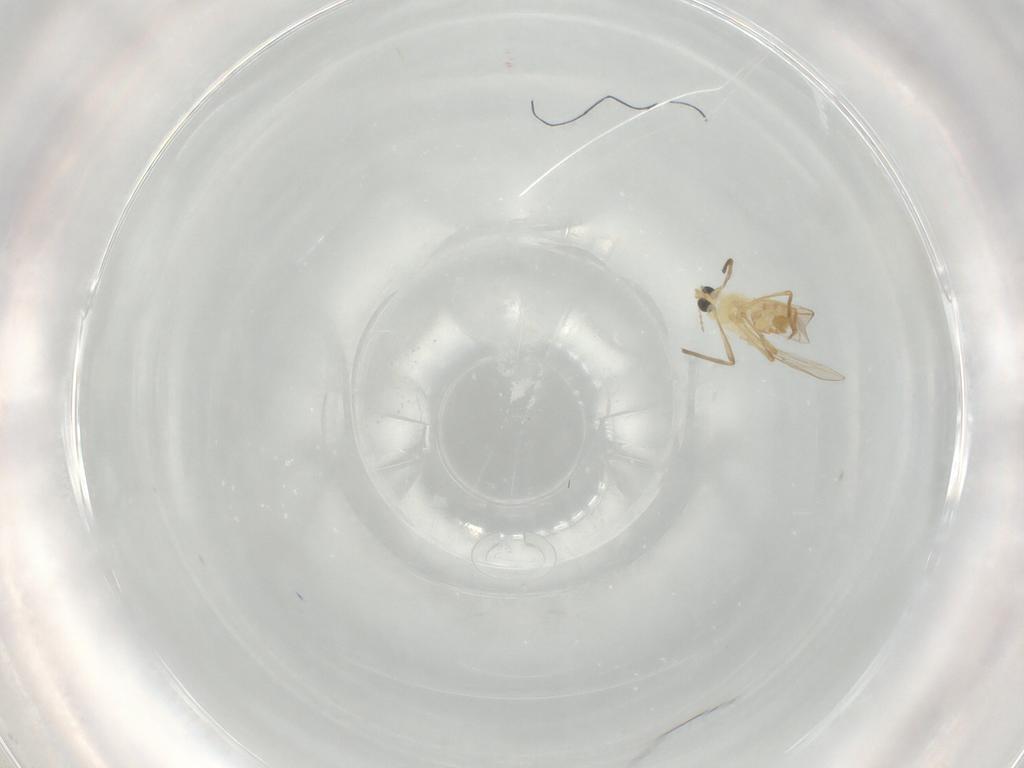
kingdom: Animalia
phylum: Arthropoda
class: Insecta
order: Diptera
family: Chironomidae
